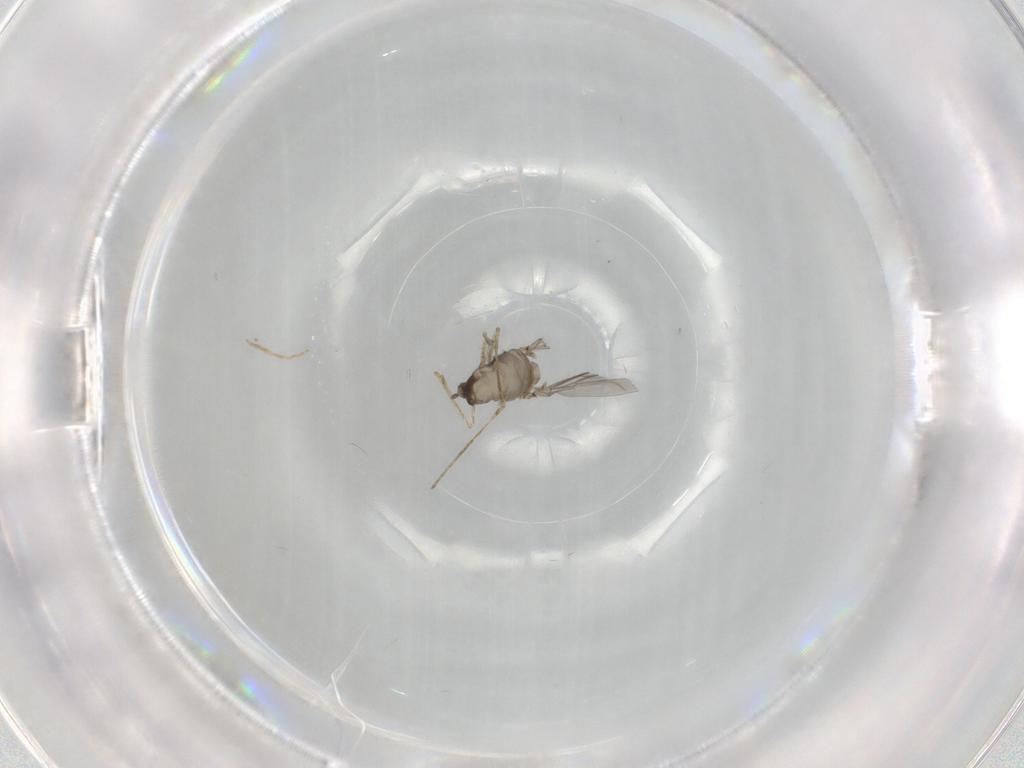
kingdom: Animalia
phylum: Arthropoda
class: Insecta
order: Diptera
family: Cecidomyiidae
